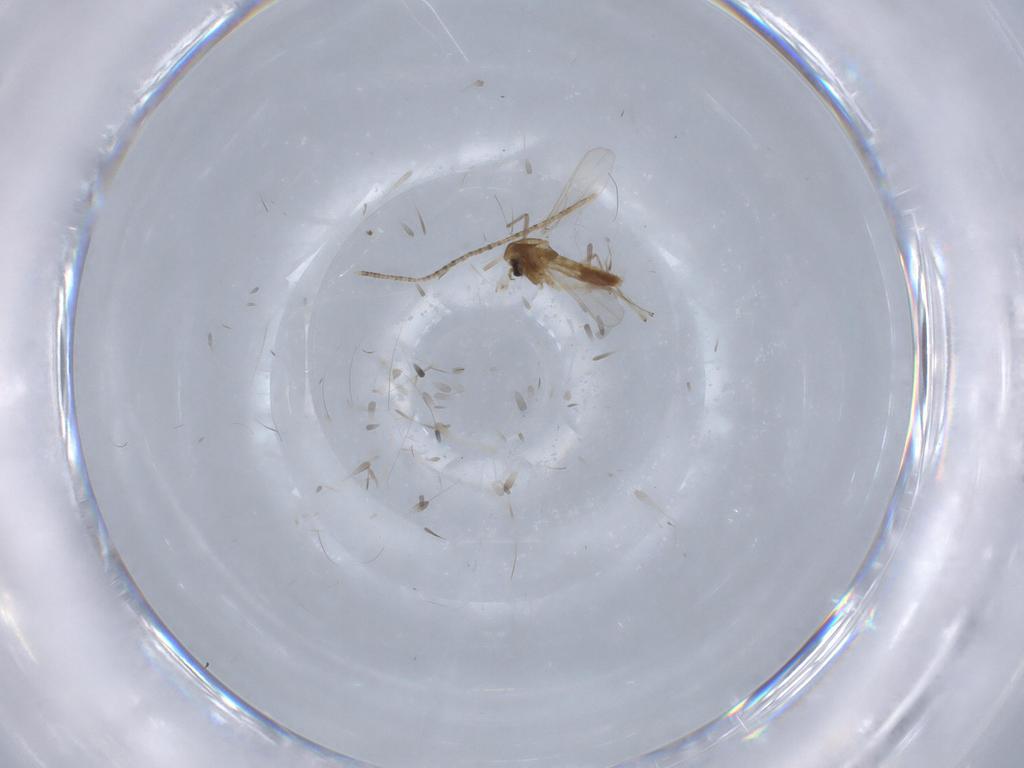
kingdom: Animalia
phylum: Arthropoda
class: Insecta
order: Diptera
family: Chironomidae
